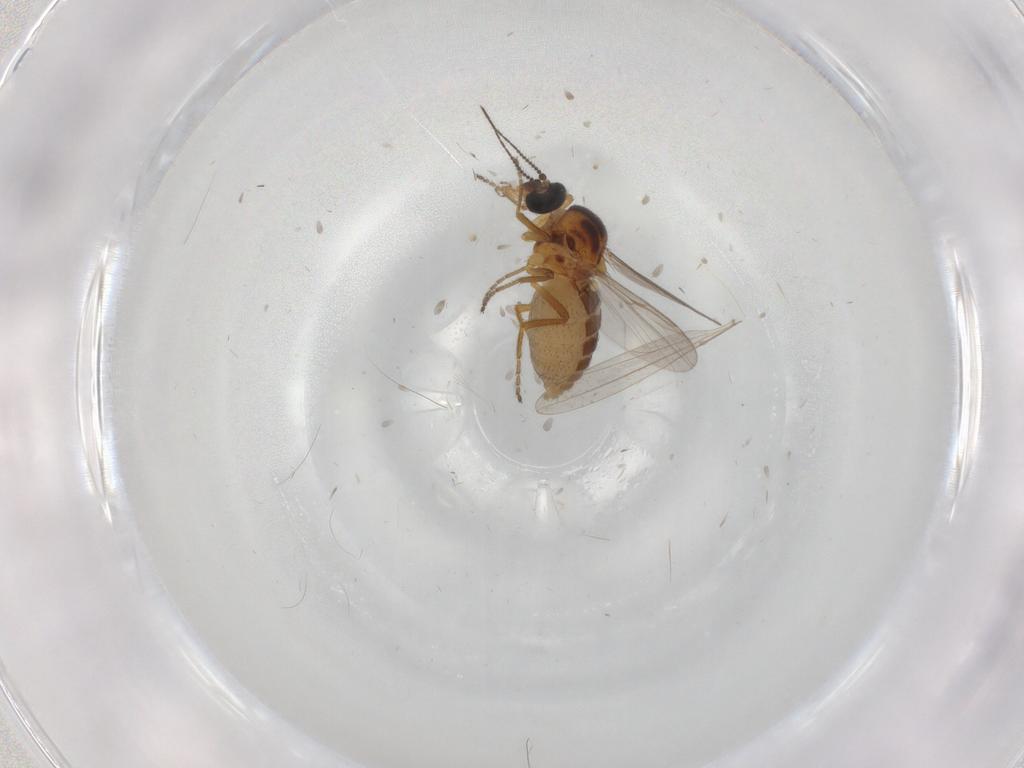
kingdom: Animalia
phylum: Arthropoda
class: Insecta
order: Diptera
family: Ceratopogonidae
